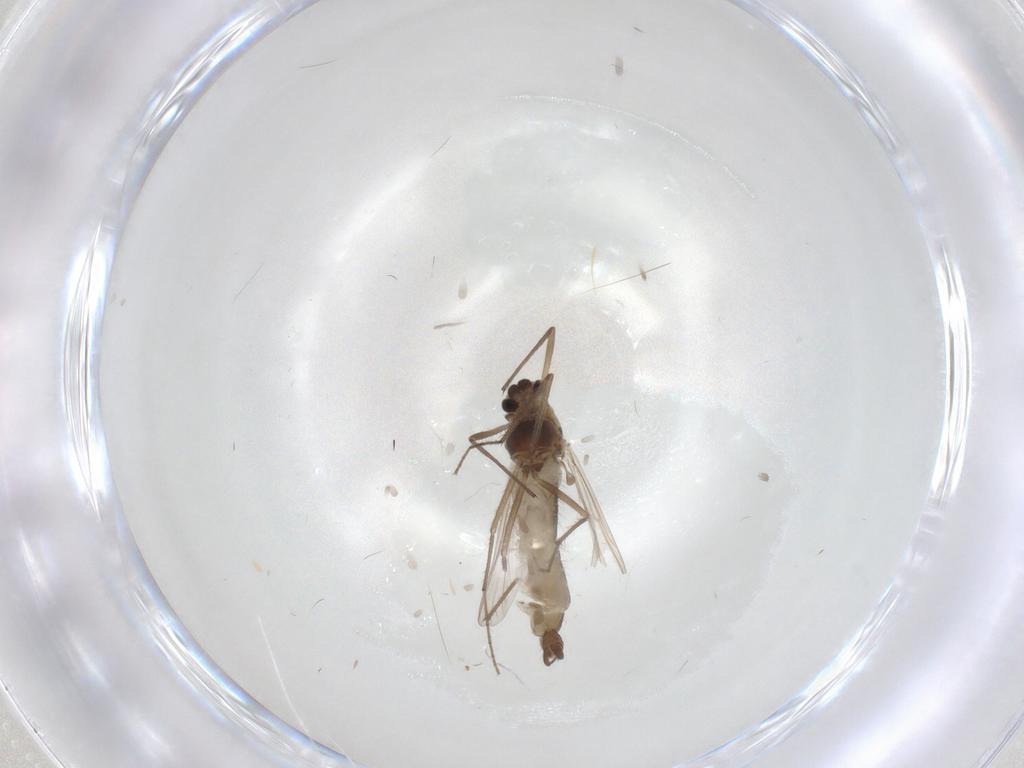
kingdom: Animalia
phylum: Arthropoda
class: Insecta
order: Diptera
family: Chironomidae
